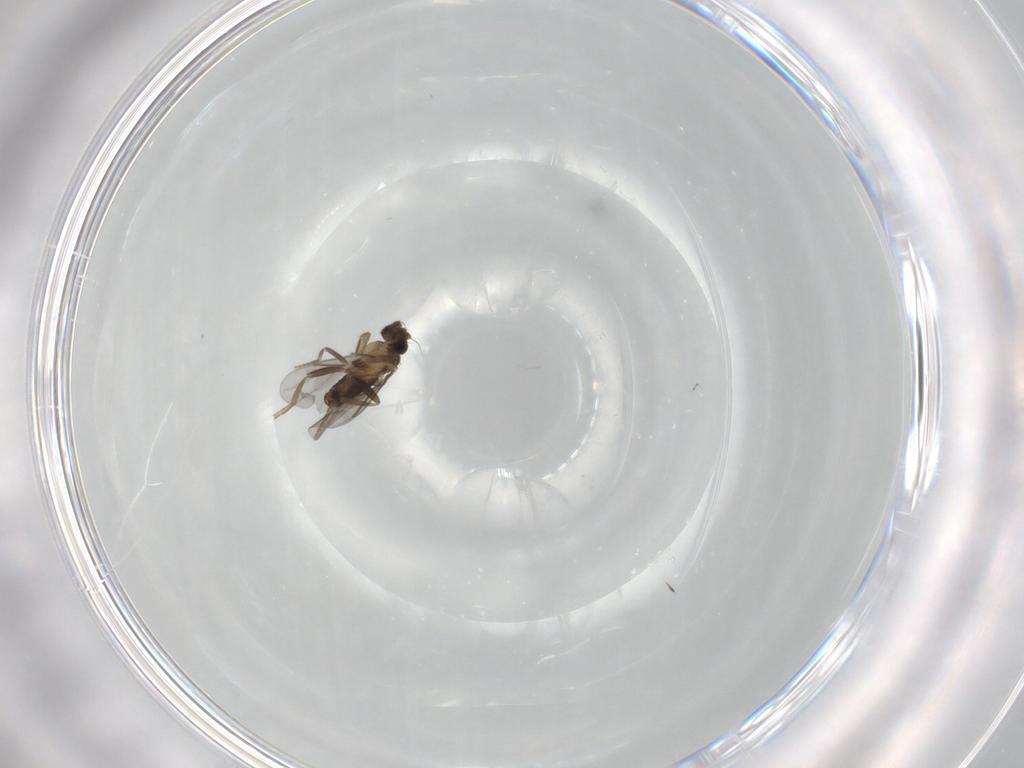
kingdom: Animalia
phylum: Arthropoda
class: Insecta
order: Diptera
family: Phoridae
